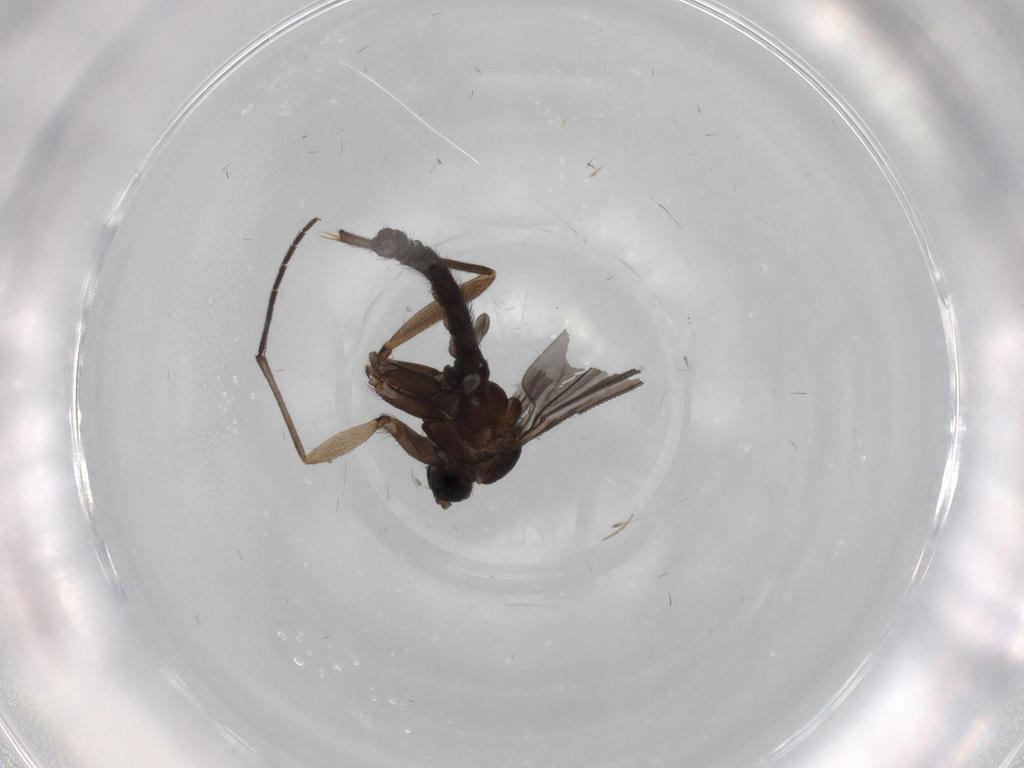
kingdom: Animalia
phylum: Arthropoda
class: Insecta
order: Diptera
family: Sciaridae
